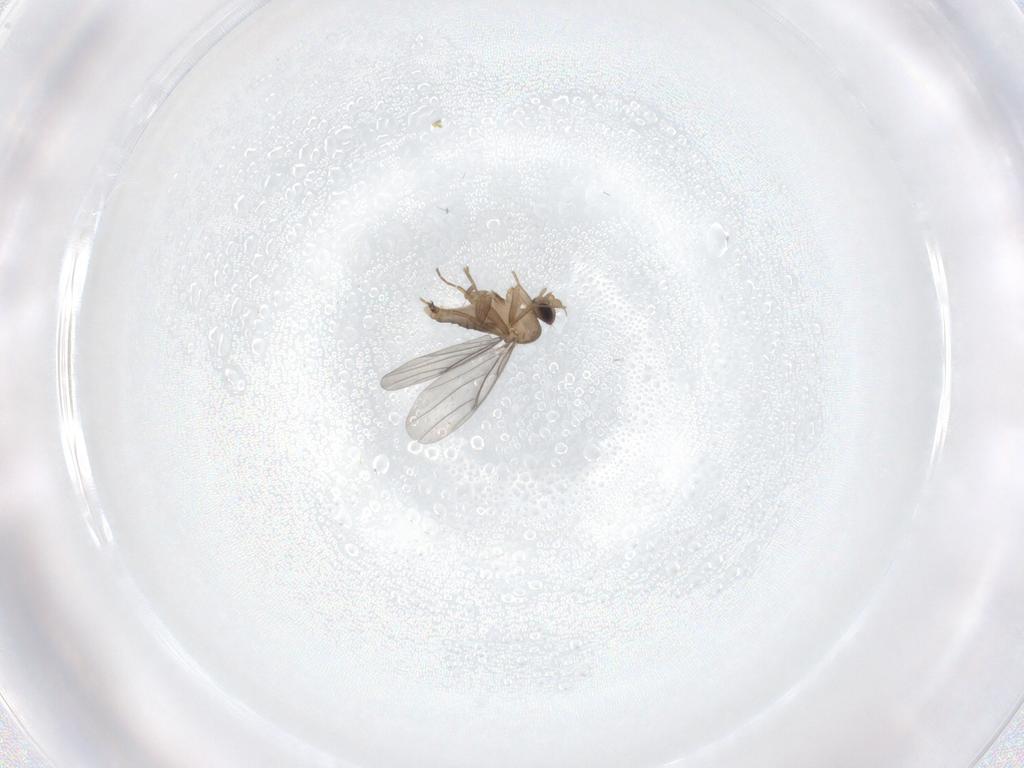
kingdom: Animalia
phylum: Arthropoda
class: Insecta
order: Diptera
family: Cecidomyiidae
